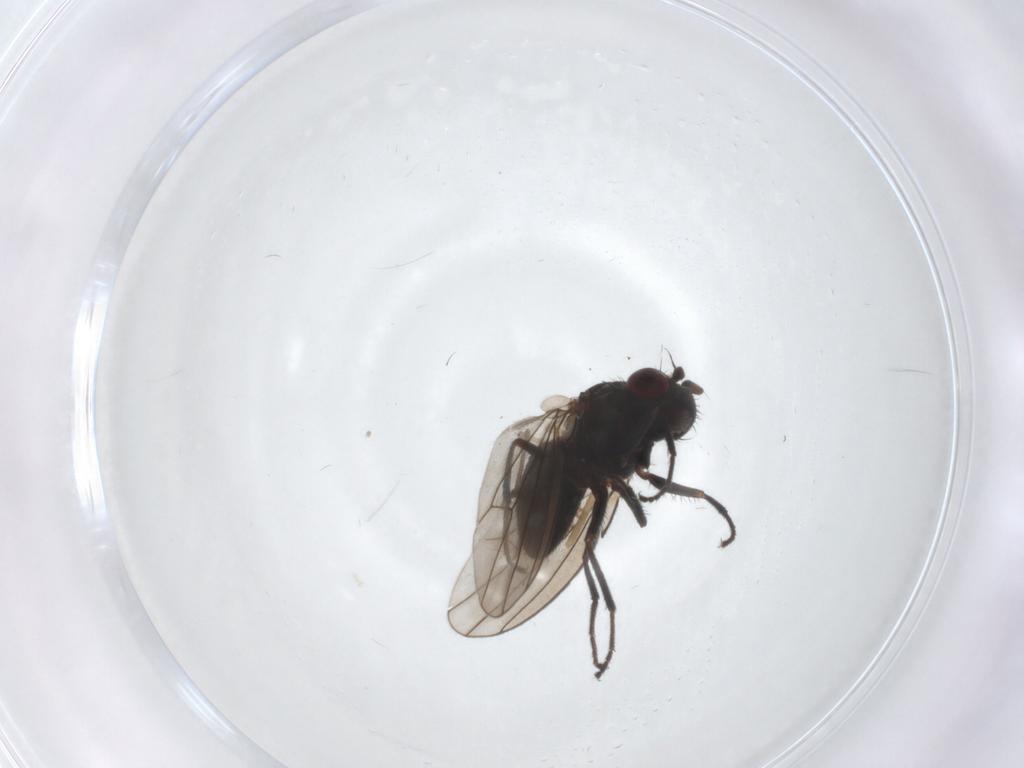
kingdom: Animalia
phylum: Arthropoda
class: Insecta
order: Diptera
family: Ephydridae
